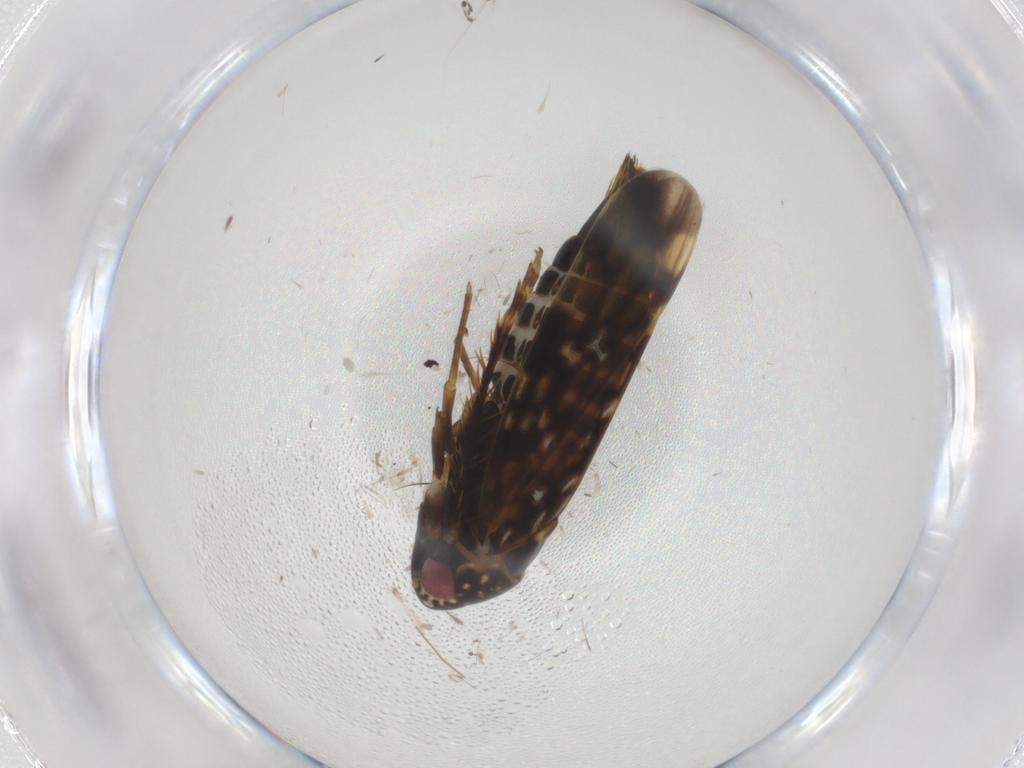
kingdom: Animalia
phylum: Arthropoda
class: Insecta
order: Hemiptera
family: Cicadellidae
